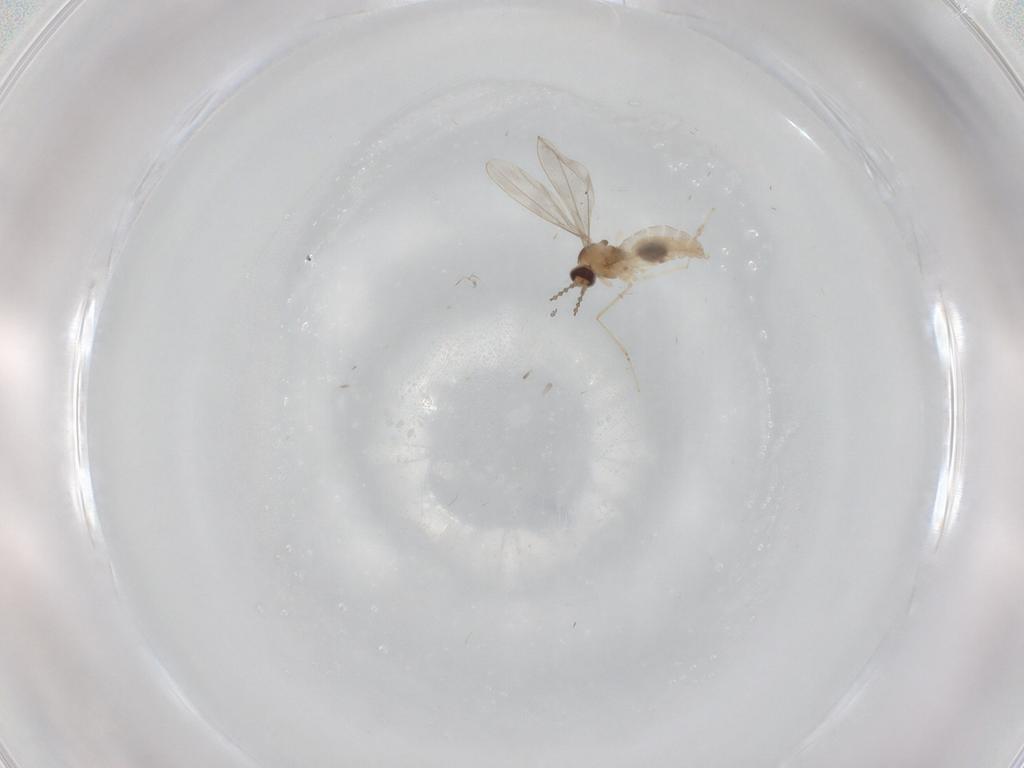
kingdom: Animalia
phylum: Arthropoda
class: Insecta
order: Diptera
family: Cecidomyiidae
